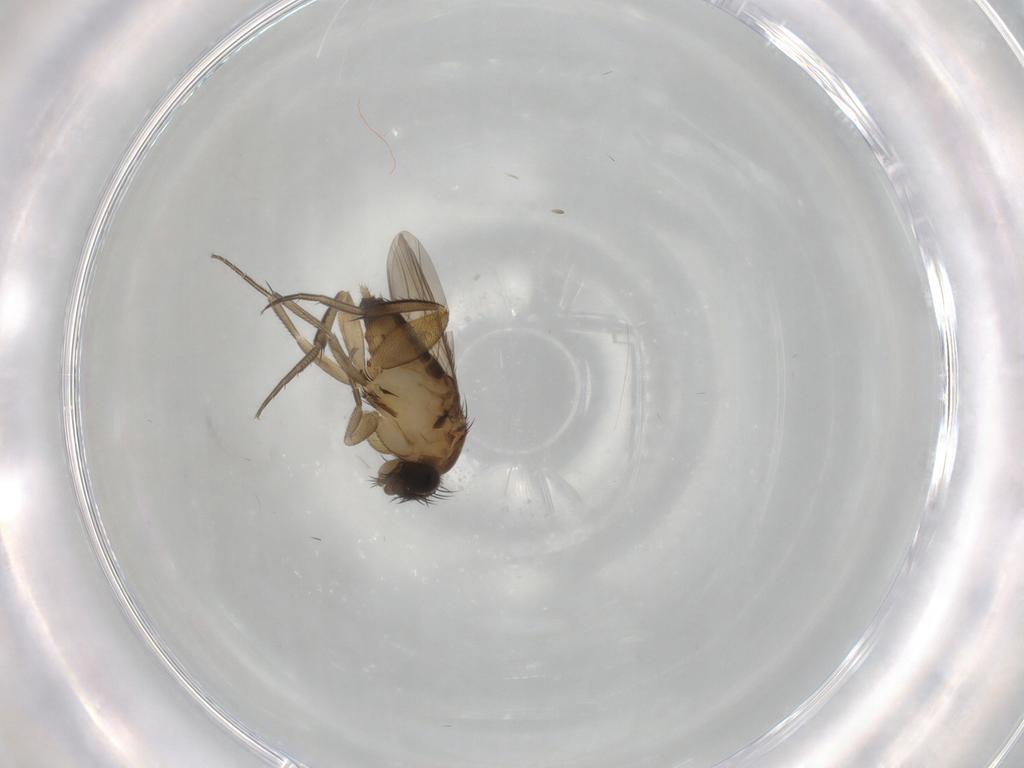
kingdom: Animalia
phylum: Arthropoda
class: Insecta
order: Diptera
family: Phoridae
